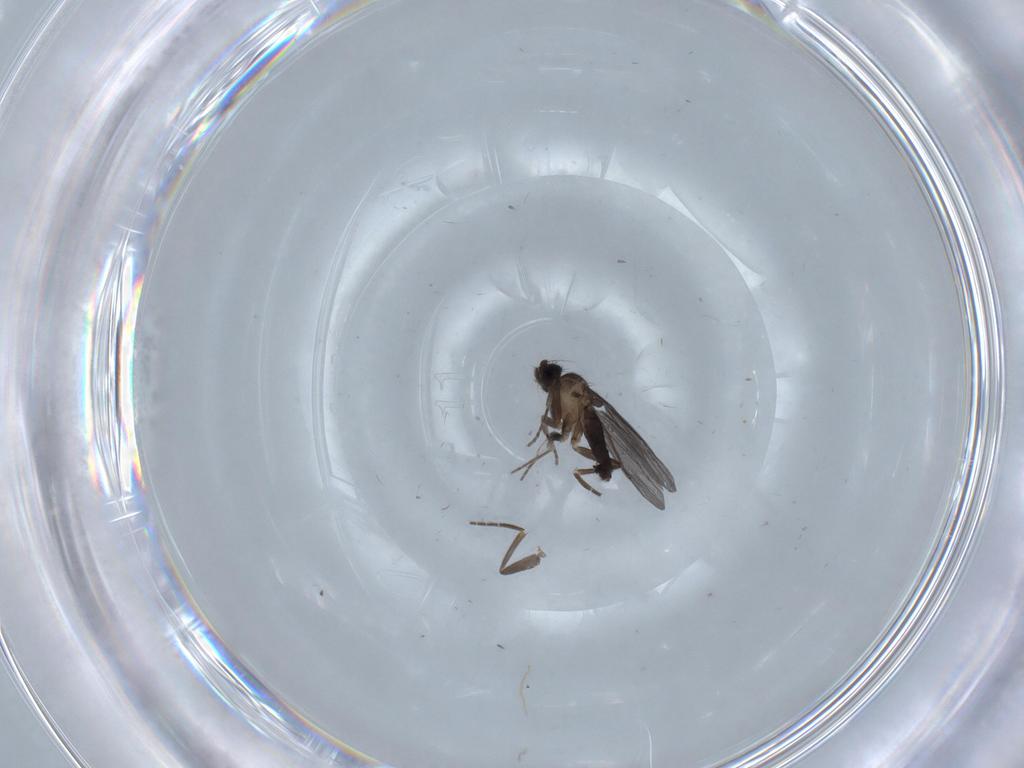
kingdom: Animalia
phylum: Arthropoda
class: Insecta
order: Diptera
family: Phoridae
